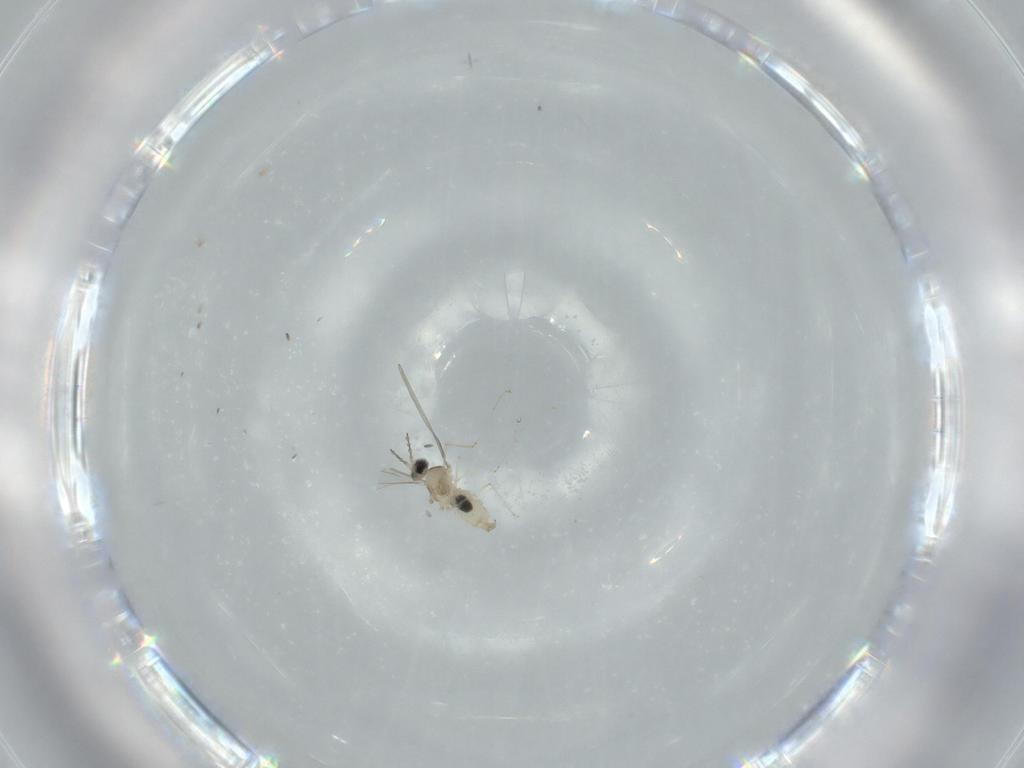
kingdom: Animalia
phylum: Arthropoda
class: Insecta
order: Diptera
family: Cecidomyiidae
